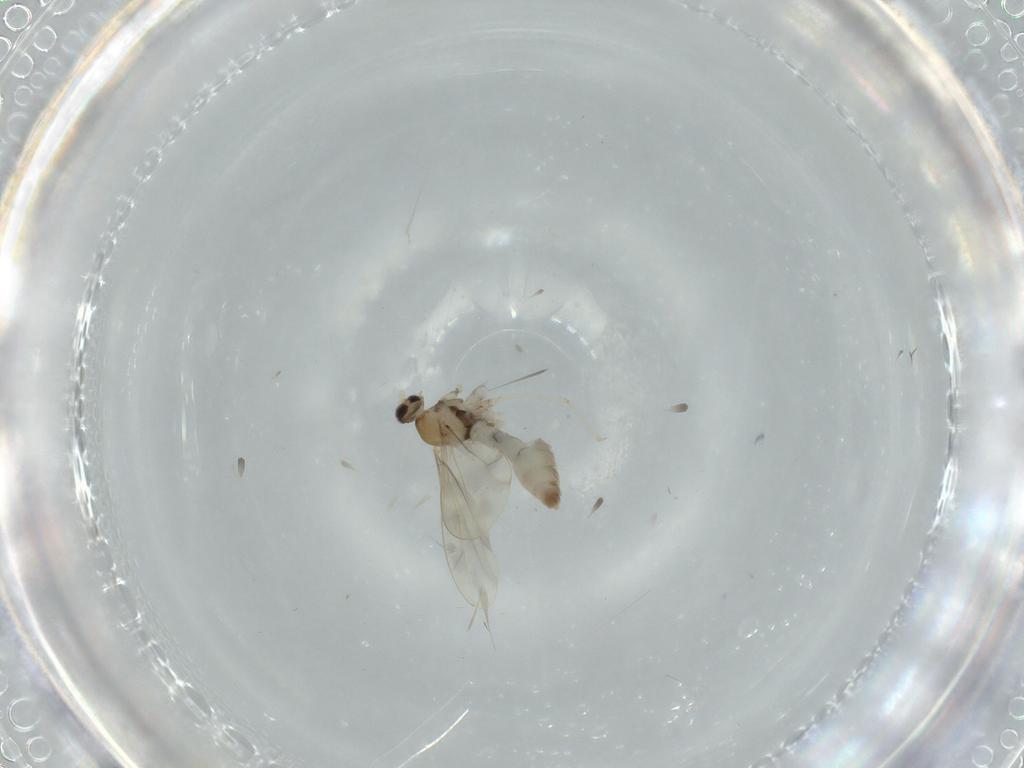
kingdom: Animalia
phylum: Arthropoda
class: Insecta
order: Diptera
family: Cecidomyiidae
